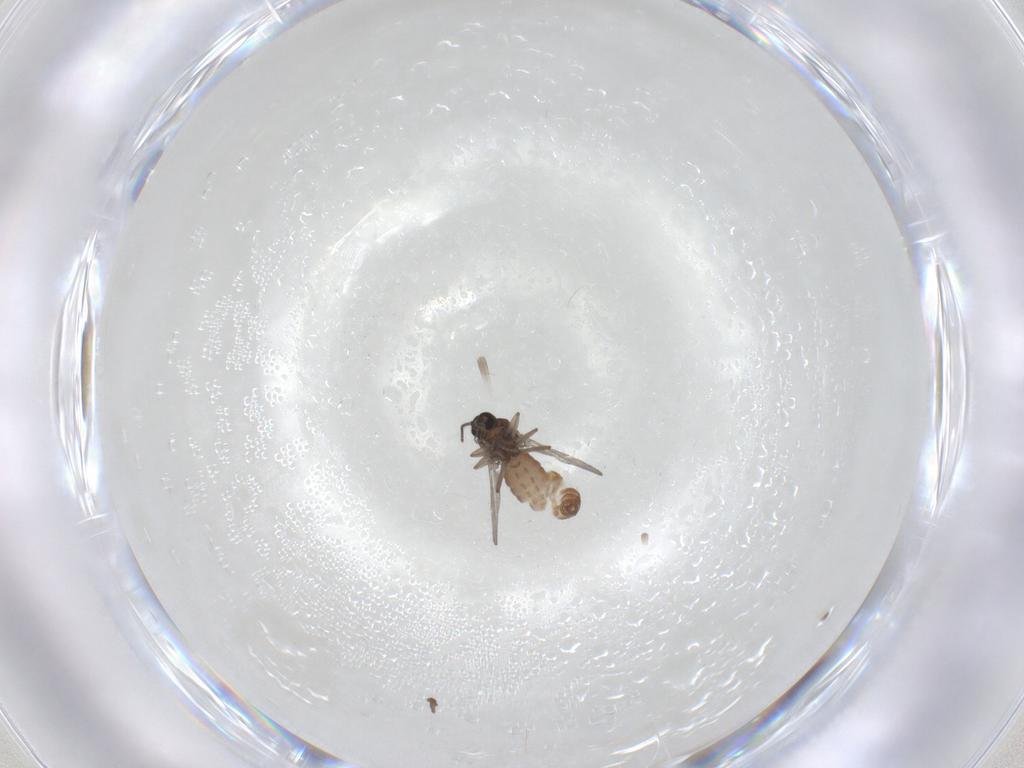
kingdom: Animalia
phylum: Arthropoda
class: Insecta
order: Diptera
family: Ceratopogonidae
